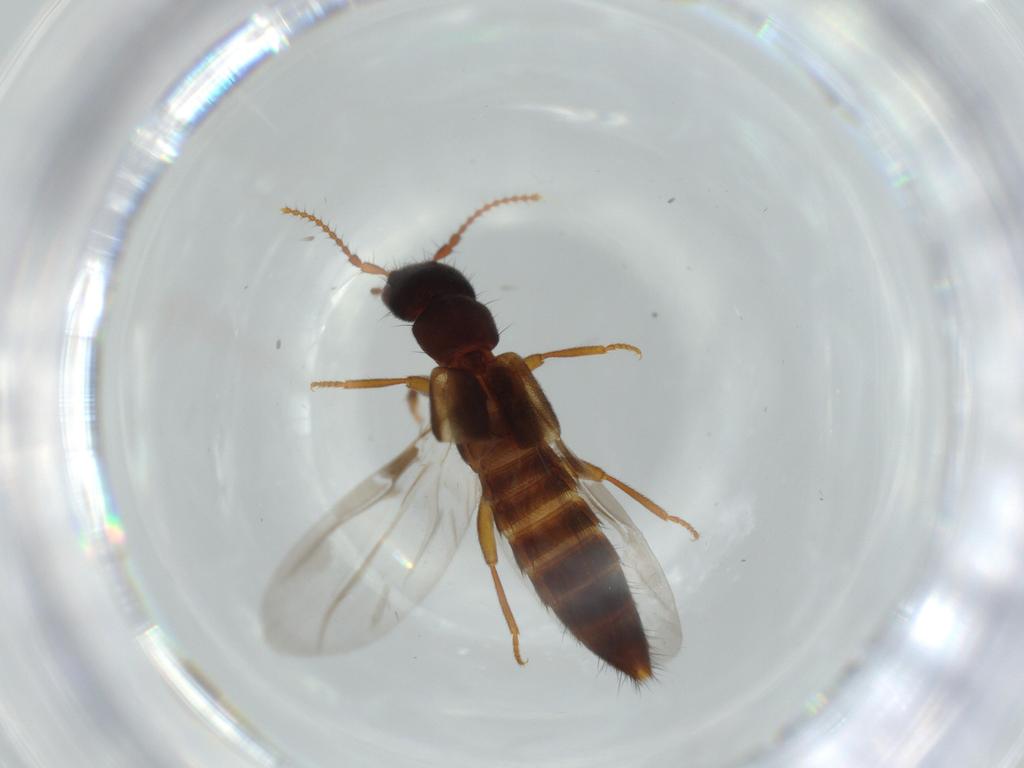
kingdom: Animalia
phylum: Arthropoda
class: Insecta
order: Coleoptera
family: Staphylinidae
